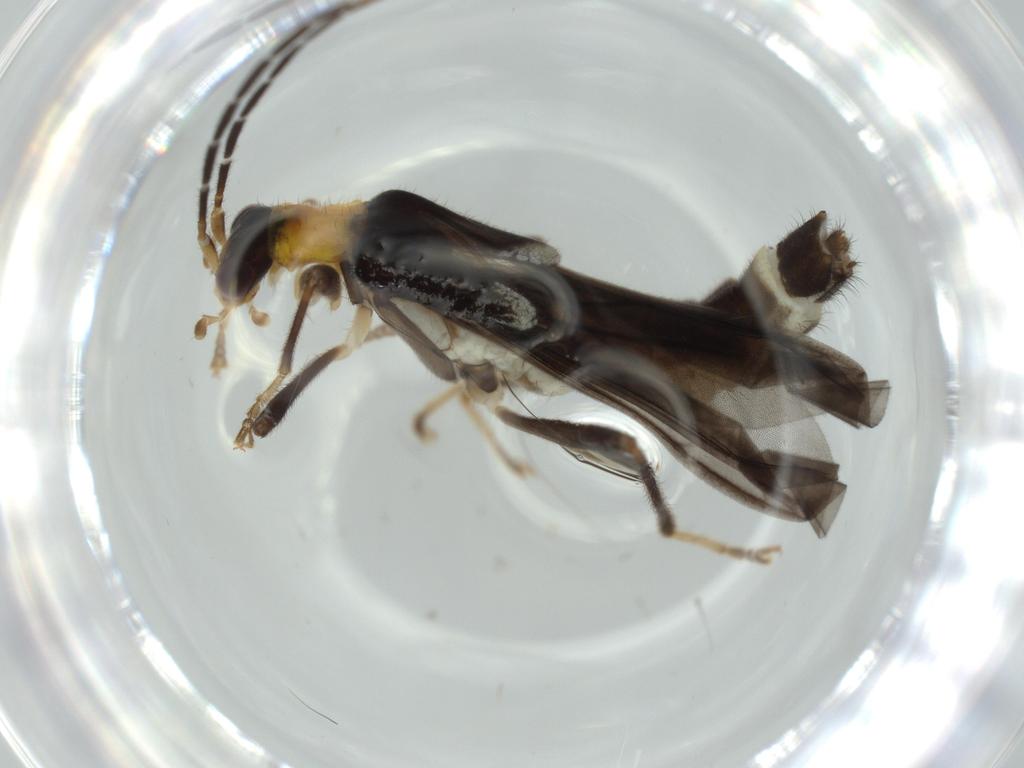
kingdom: Animalia
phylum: Arthropoda
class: Insecta
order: Coleoptera
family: Cantharidae
